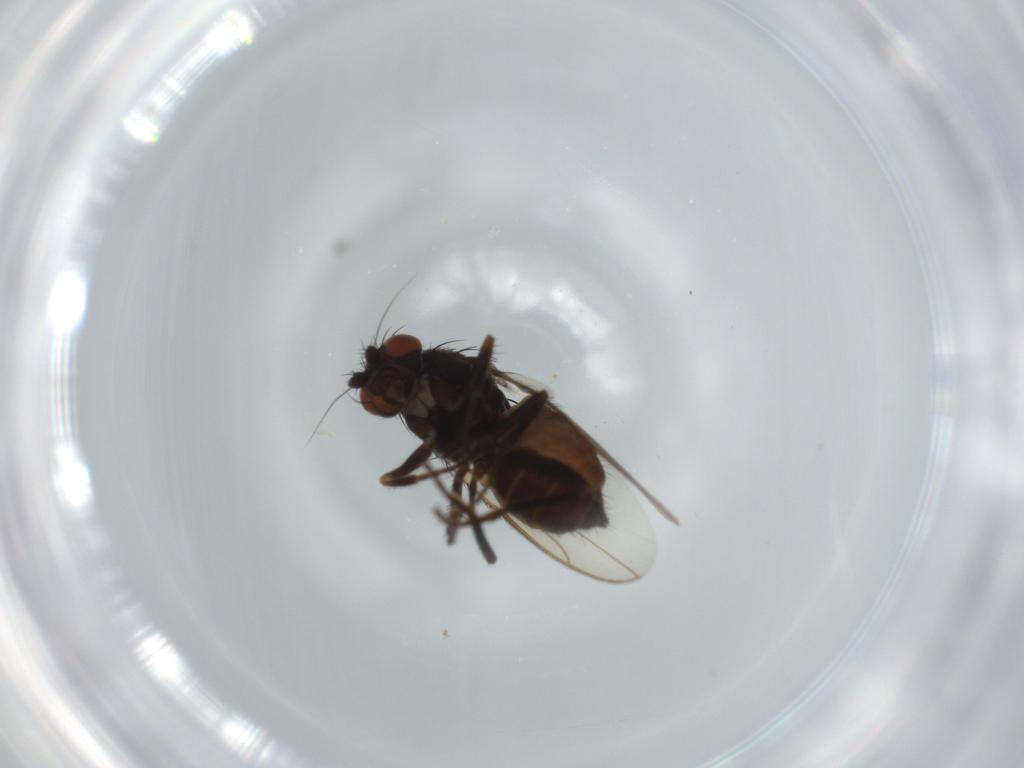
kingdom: Animalia
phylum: Arthropoda
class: Insecta
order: Diptera
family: Sphaeroceridae
